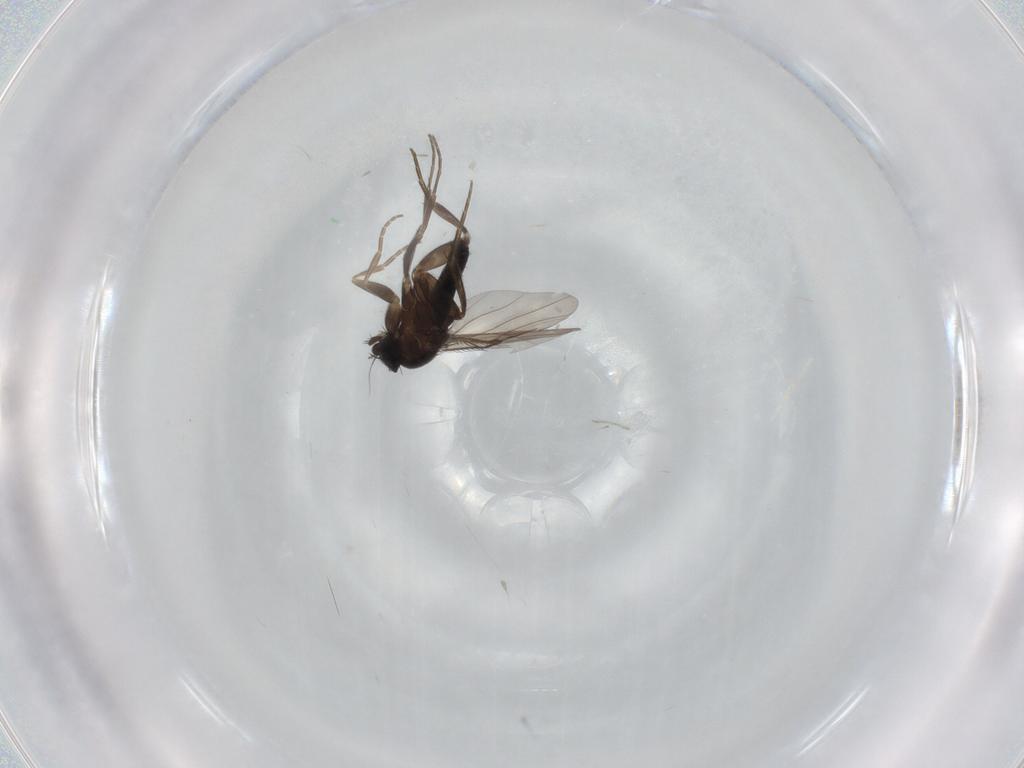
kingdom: Animalia
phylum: Arthropoda
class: Insecta
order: Diptera
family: Phoridae
